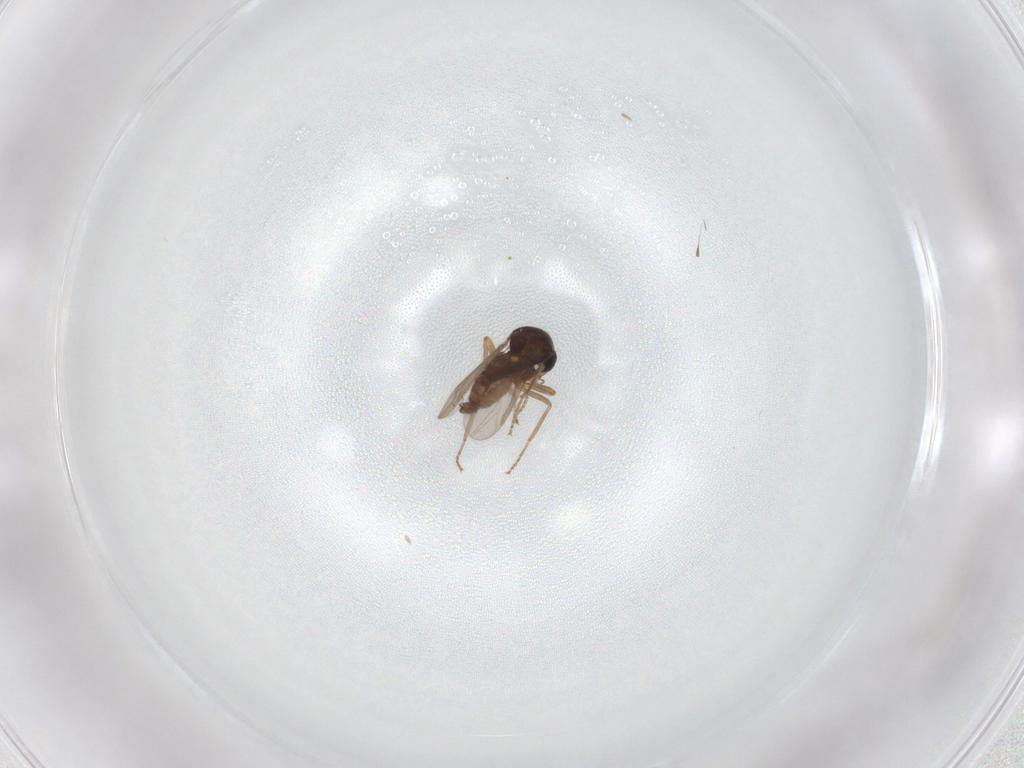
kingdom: Animalia
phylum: Arthropoda
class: Insecta
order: Diptera
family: Ceratopogonidae
